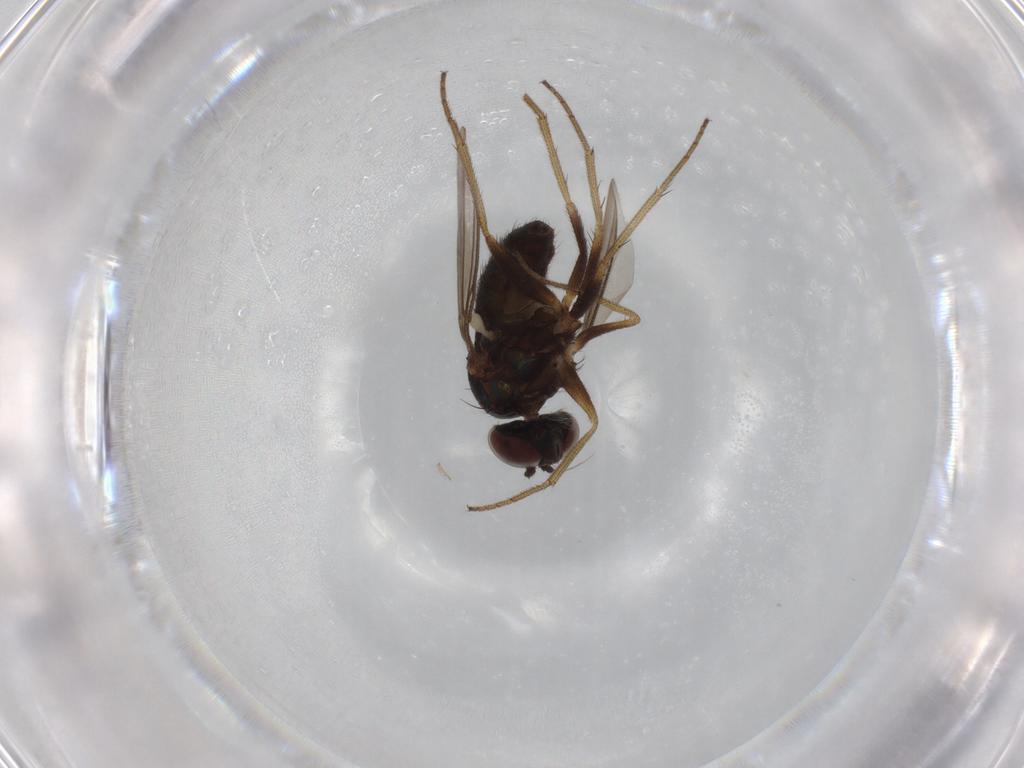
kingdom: Animalia
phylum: Arthropoda
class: Insecta
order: Diptera
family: Dolichopodidae
